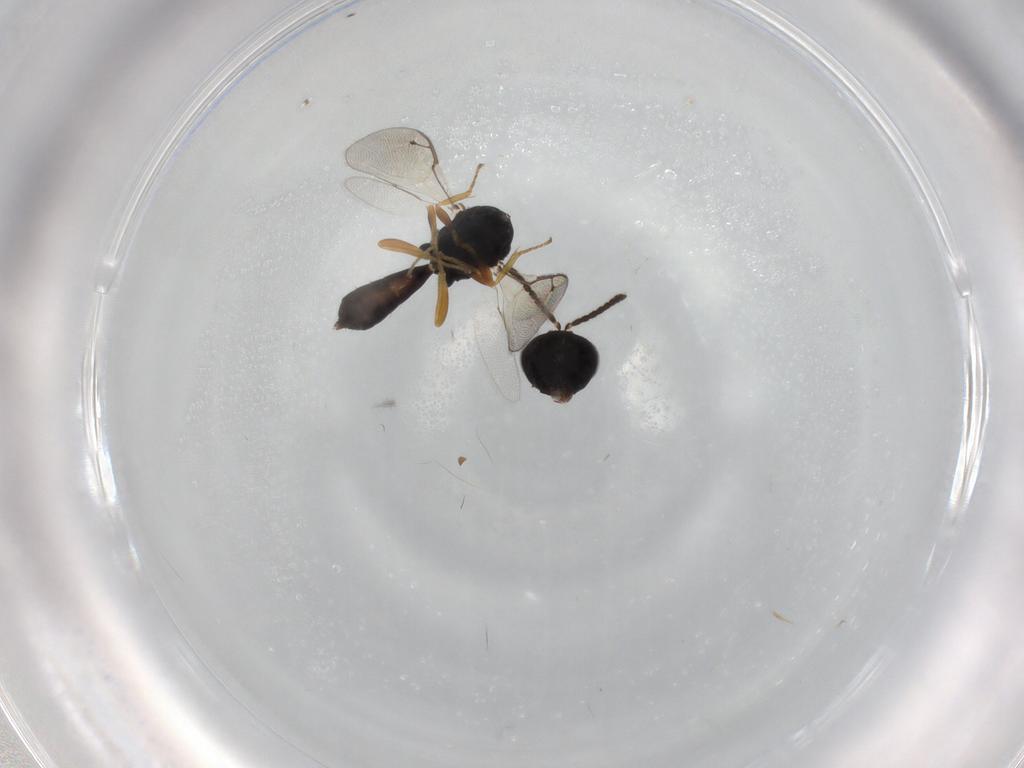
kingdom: Animalia
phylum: Arthropoda
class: Insecta
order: Hymenoptera
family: Pteromalidae
